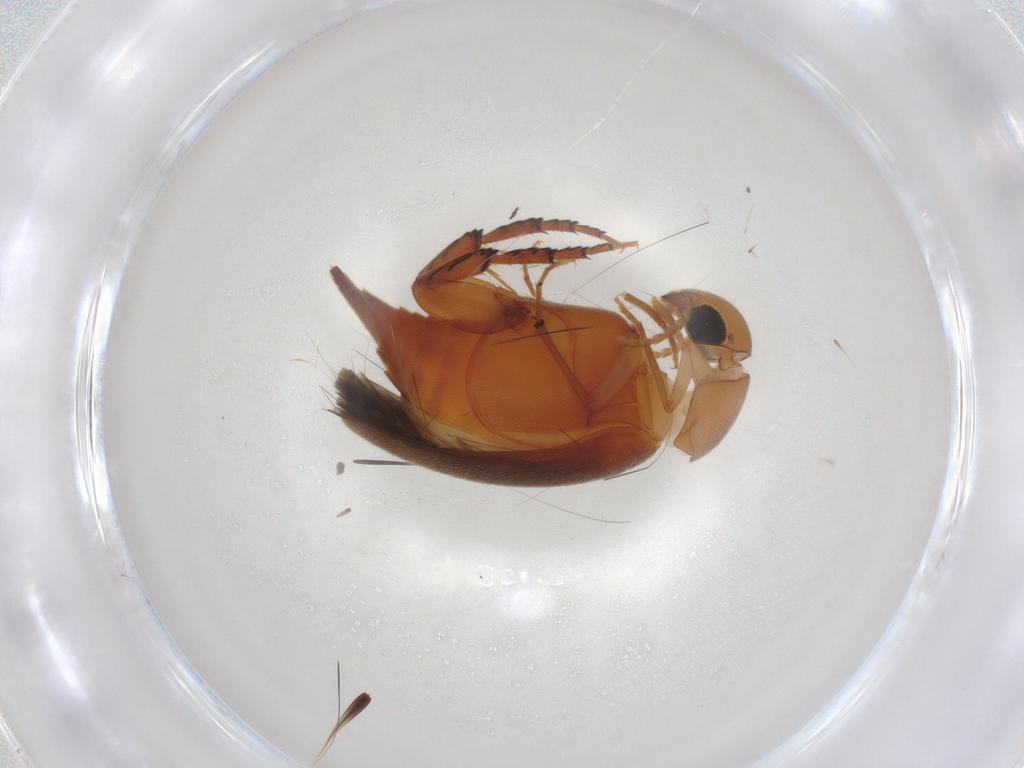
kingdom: Animalia
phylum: Arthropoda
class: Insecta
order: Coleoptera
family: Mordellidae
